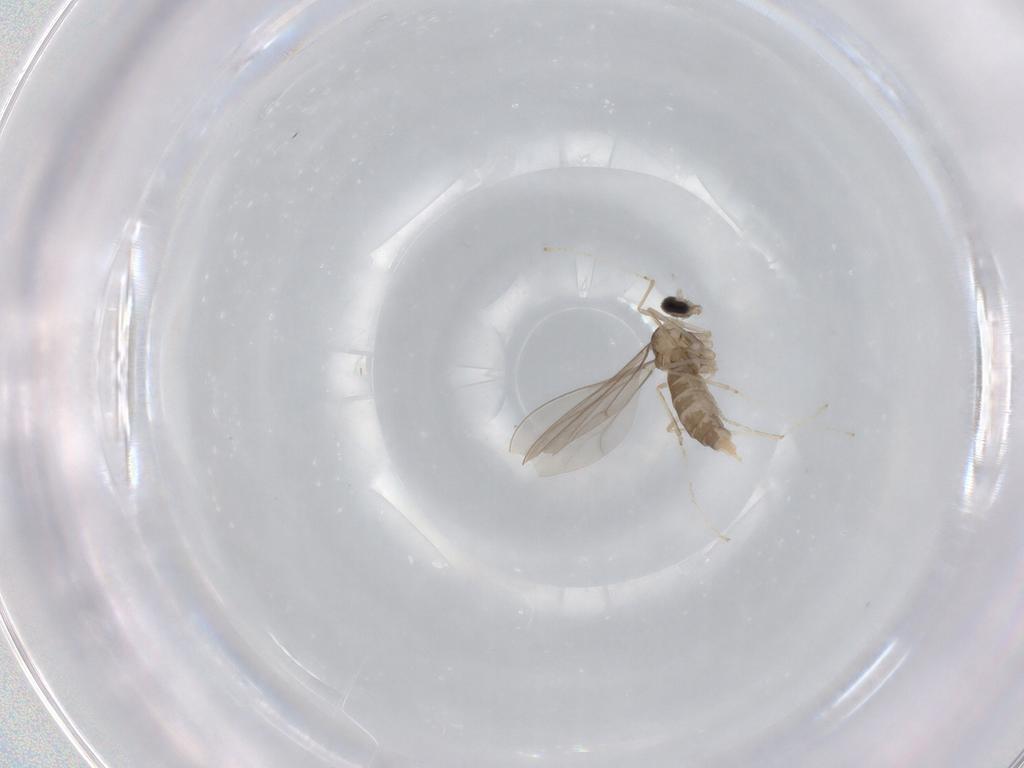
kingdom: Animalia
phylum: Arthropoda
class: Insecta
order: Diptera
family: Cecidomyiidae
